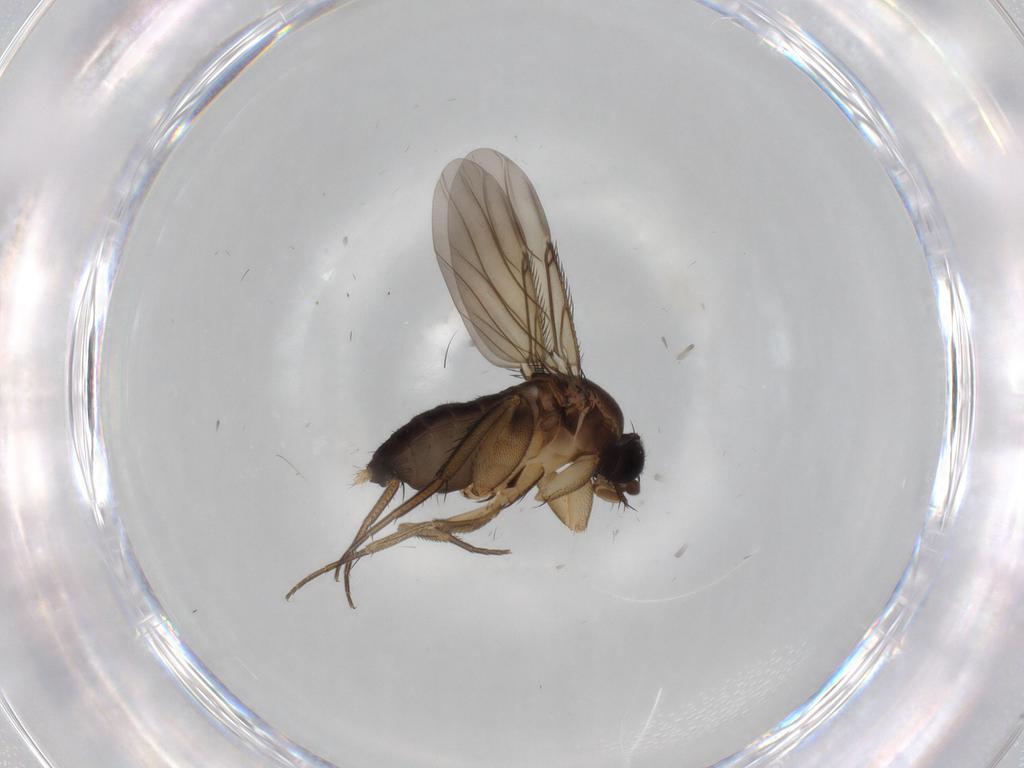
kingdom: Animalia
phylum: Arthropoda
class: Insecta
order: Diptera
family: Phoridae
